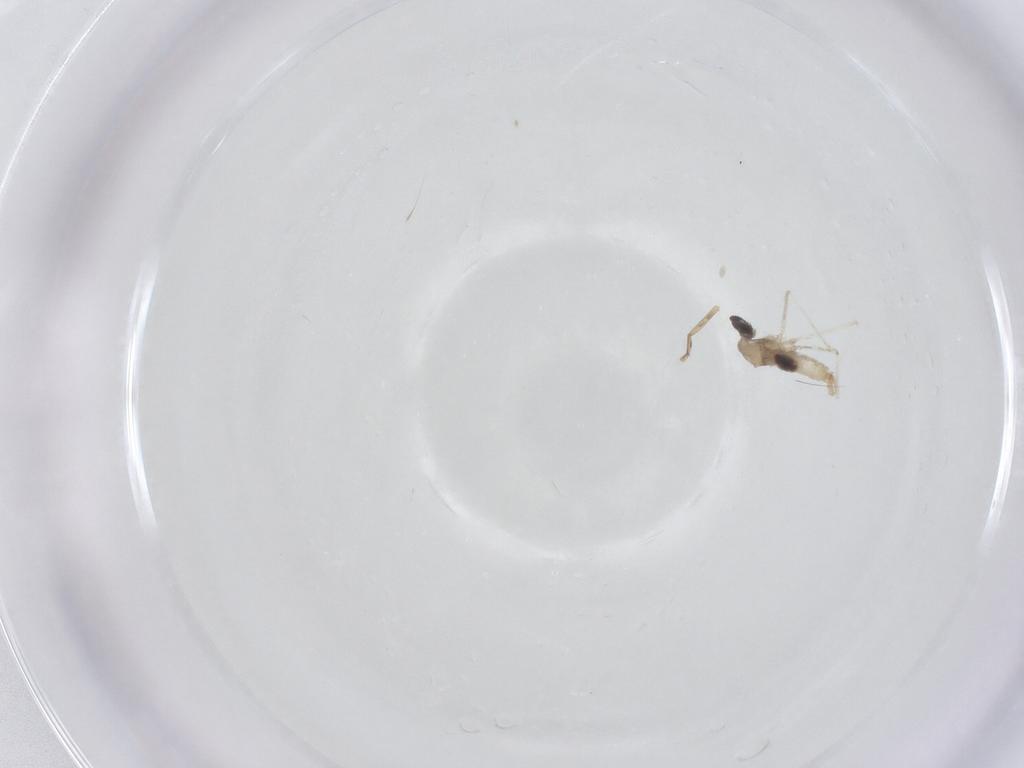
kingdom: Animalia
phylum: Arthropoda
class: Insecta
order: Diptera
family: Cecidomyiidae
